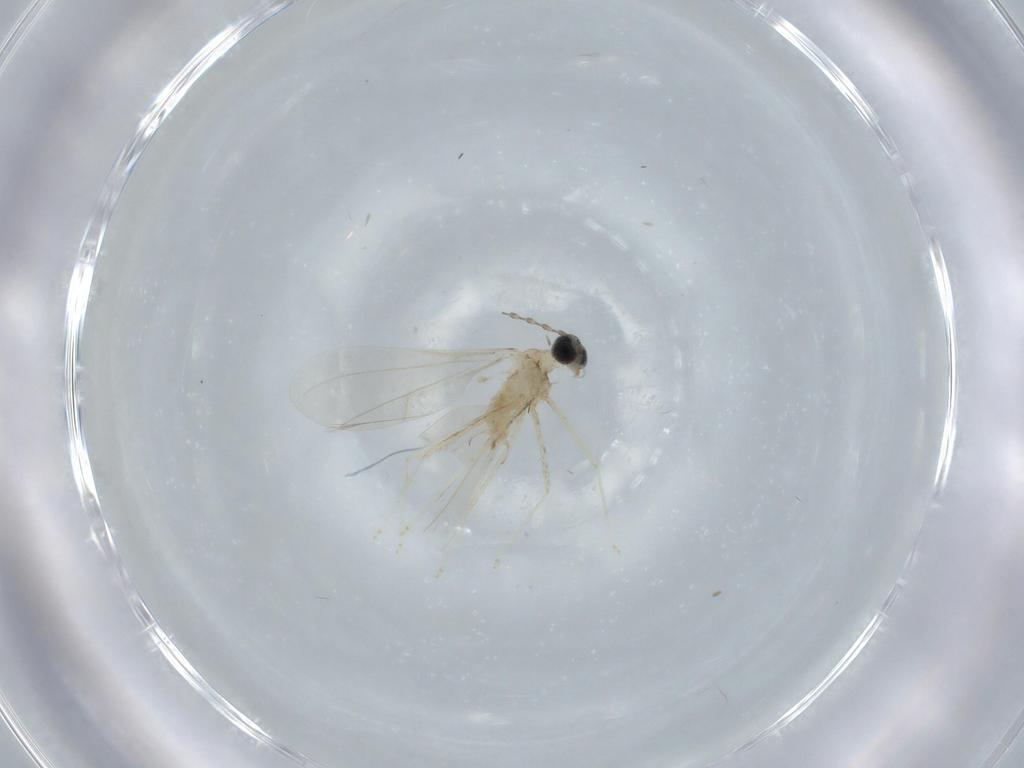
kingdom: Animalia
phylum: Arthropoda
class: Insecta
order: Diptera
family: Cecidomyiidae
